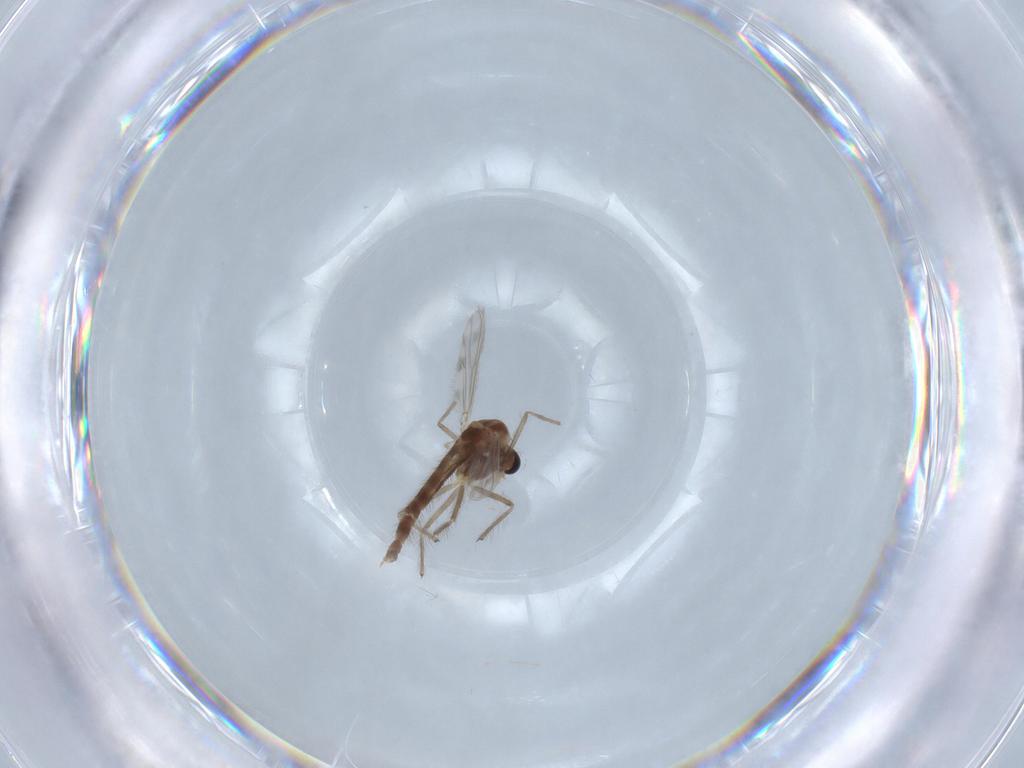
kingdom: Animalia
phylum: Arthropoda
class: Insecta
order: Diptera
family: Chironomidae
